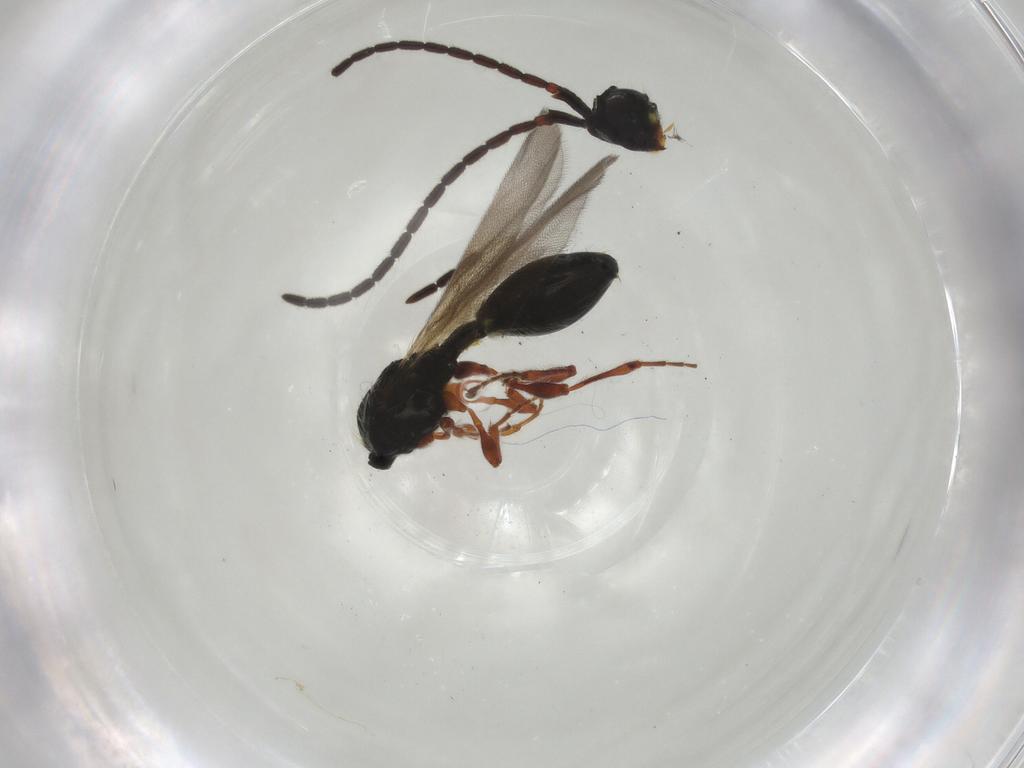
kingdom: Animalia
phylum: Arthropoda
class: Insecta
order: Hymenoptera
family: Diapriidae
